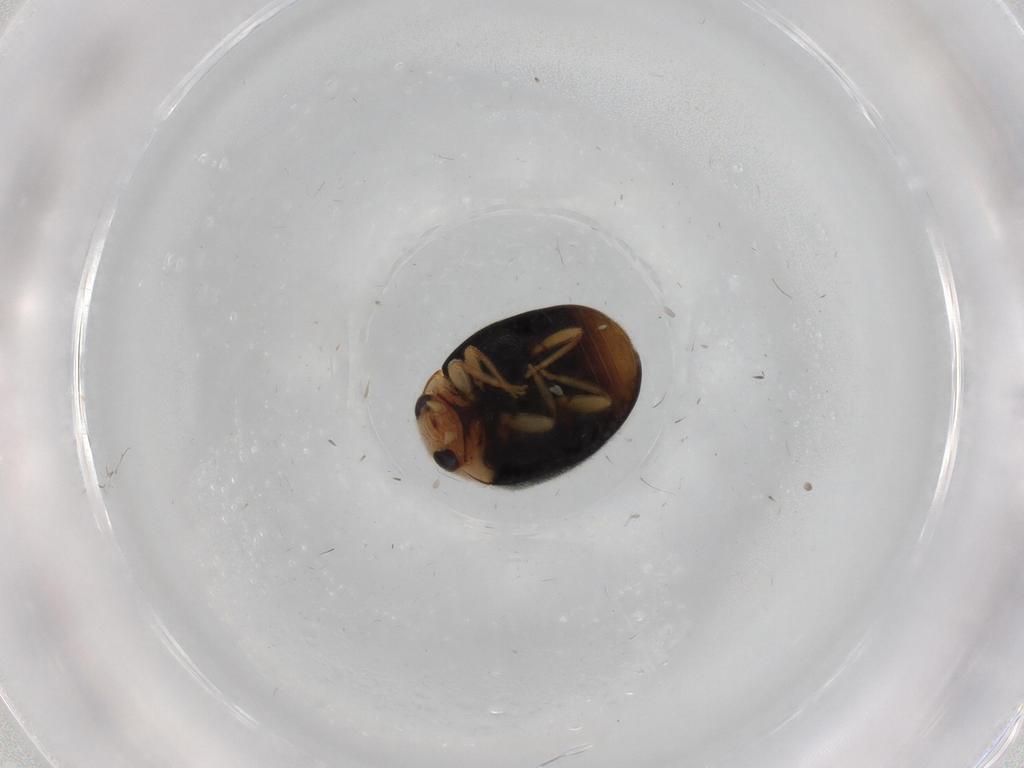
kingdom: Animalia
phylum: Arthropoda
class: Insecta
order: Coleoptera
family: Coccinellidae
